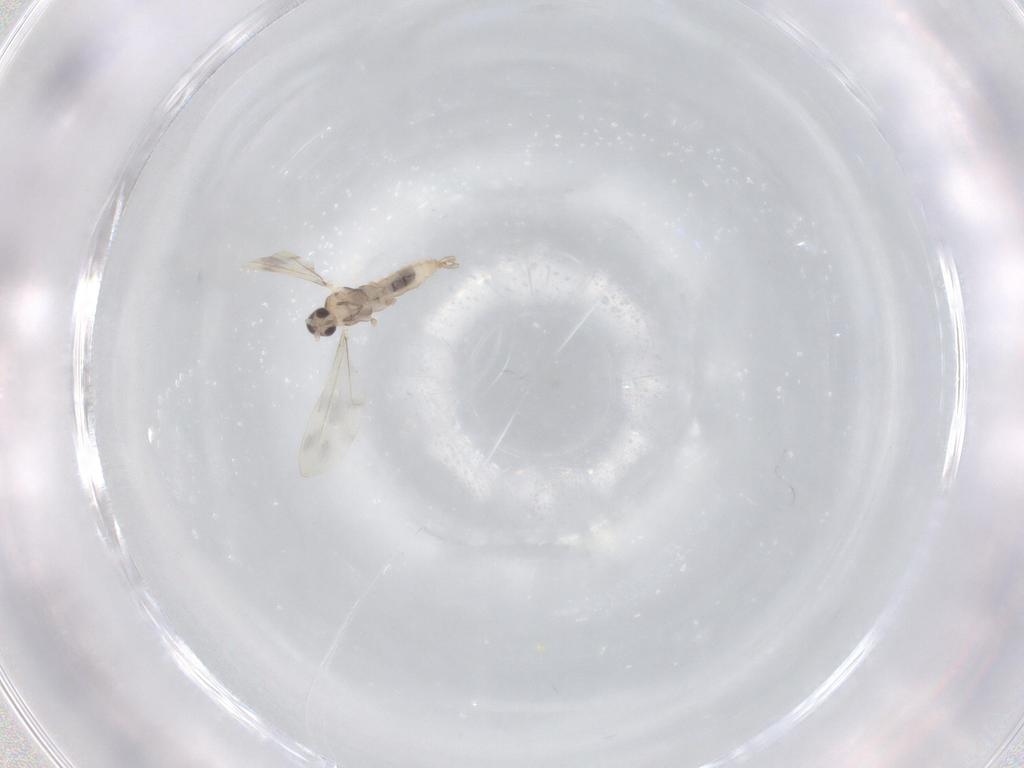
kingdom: Animalia
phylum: Arthropoda
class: Insecta
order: Diptera
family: Cecidomyiidae
